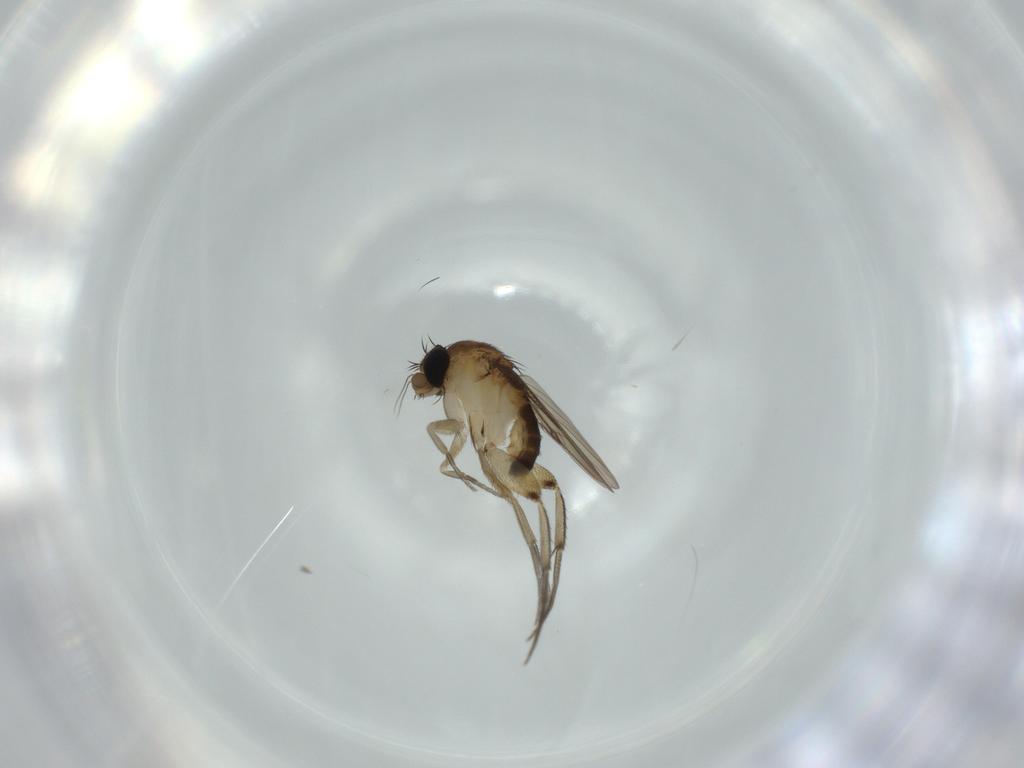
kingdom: Animalia
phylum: Arthropoda
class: Insecta
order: Diptera
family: Phoridae
